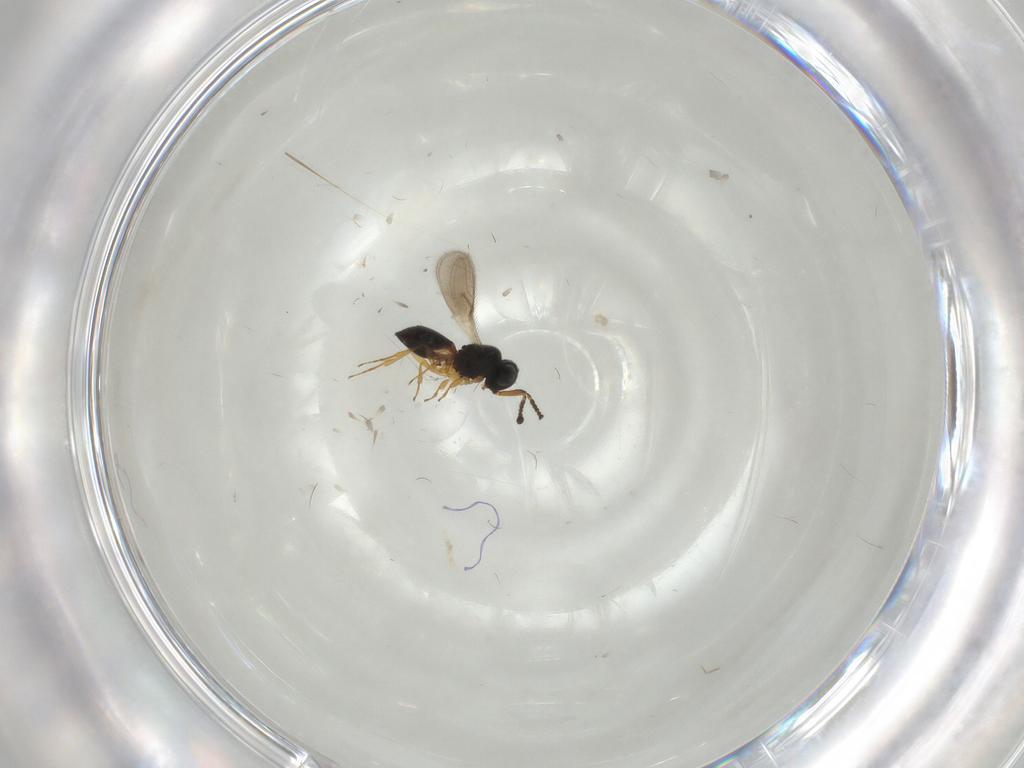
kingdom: Animalia
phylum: Arthropoda
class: Insecta
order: Hymenoptera
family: Scelionidae
